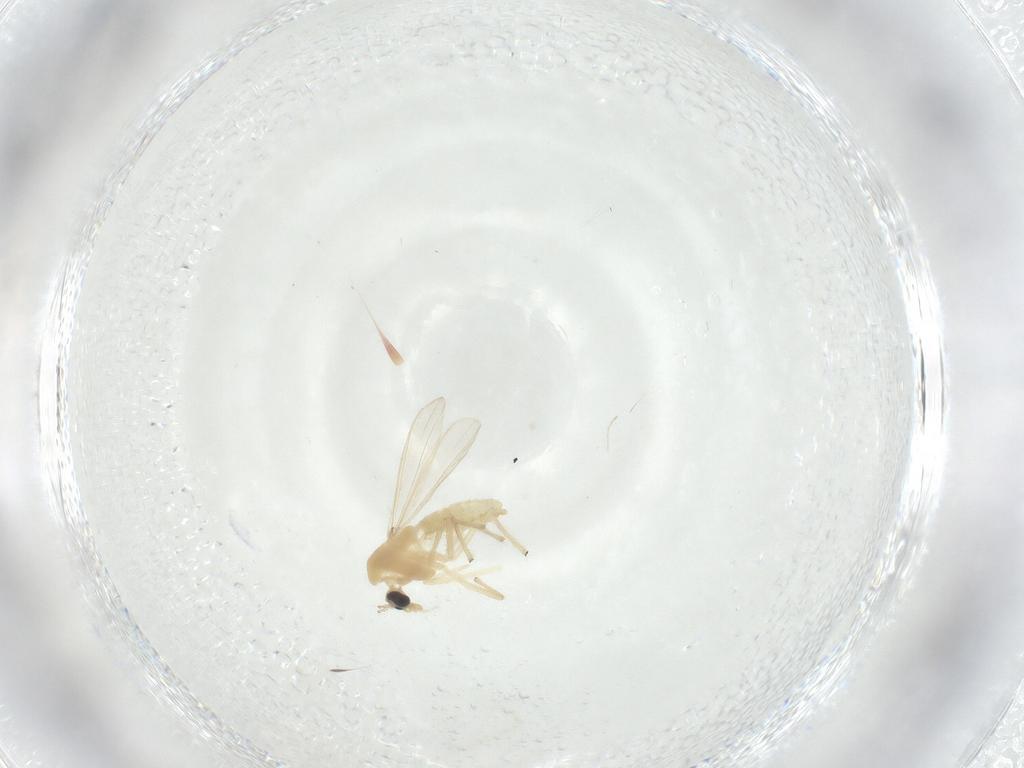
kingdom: Animalia
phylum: Arthropoda
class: Insecta
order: Diptera
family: Chironomidae
